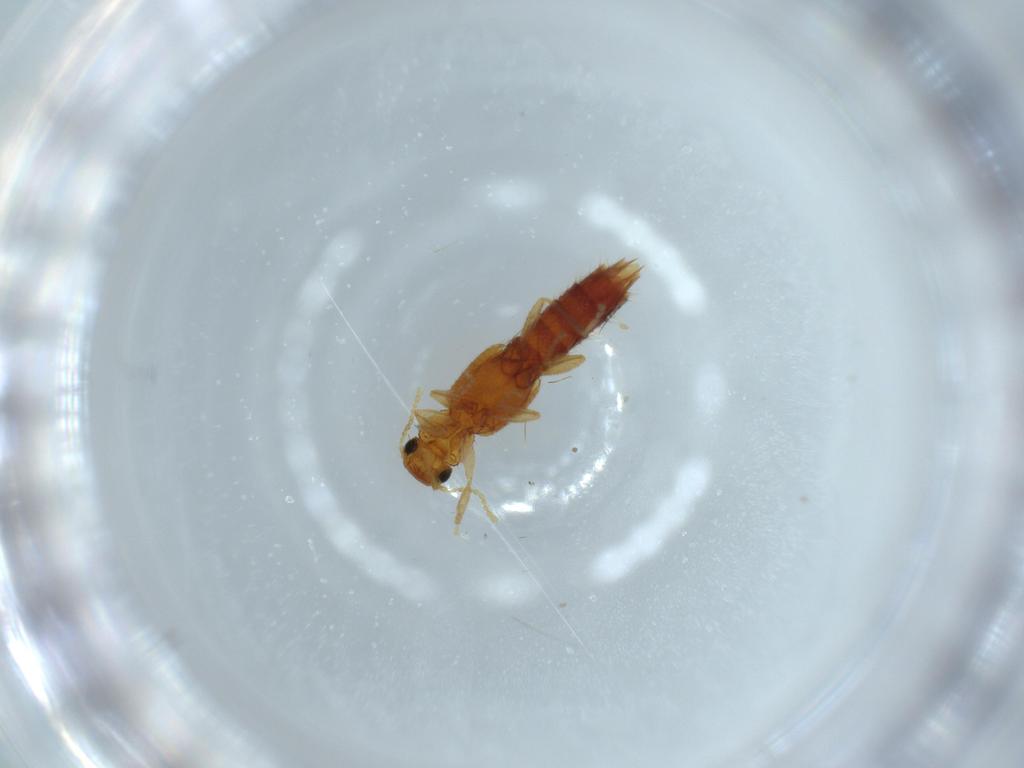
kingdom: Animalia
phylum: Arthropoda
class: Insecta
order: Coleoptera
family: Staphylinidae
